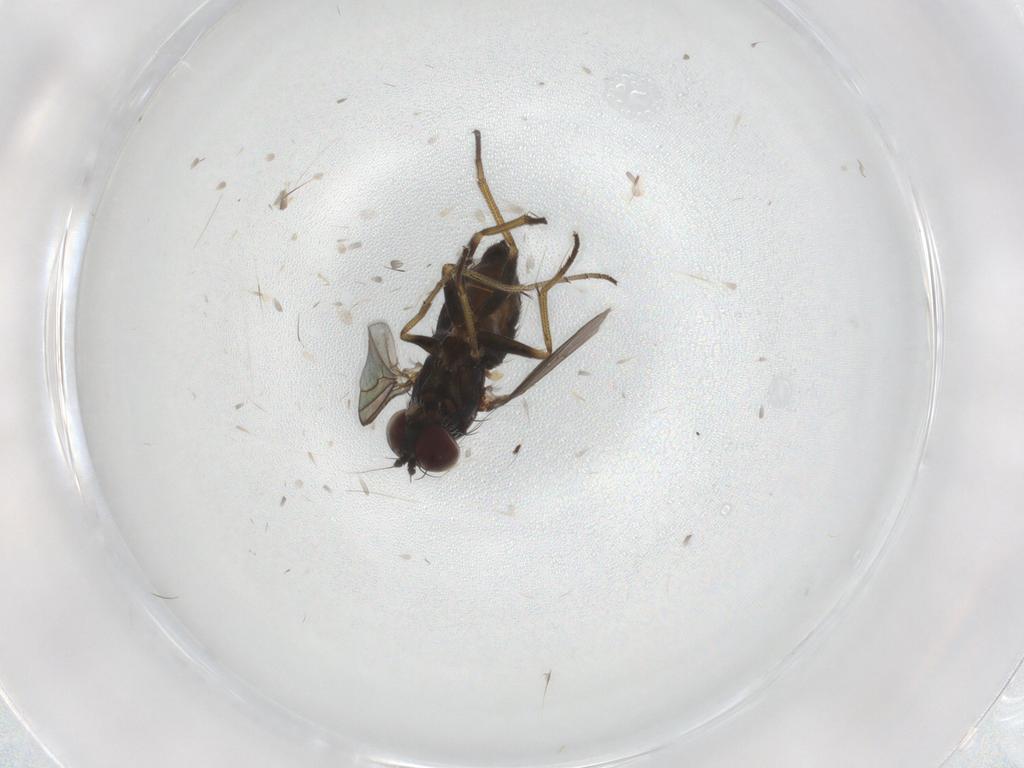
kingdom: Animalia
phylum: Arthropoda
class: Insecta
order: Diptera
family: Dolichopodidae
